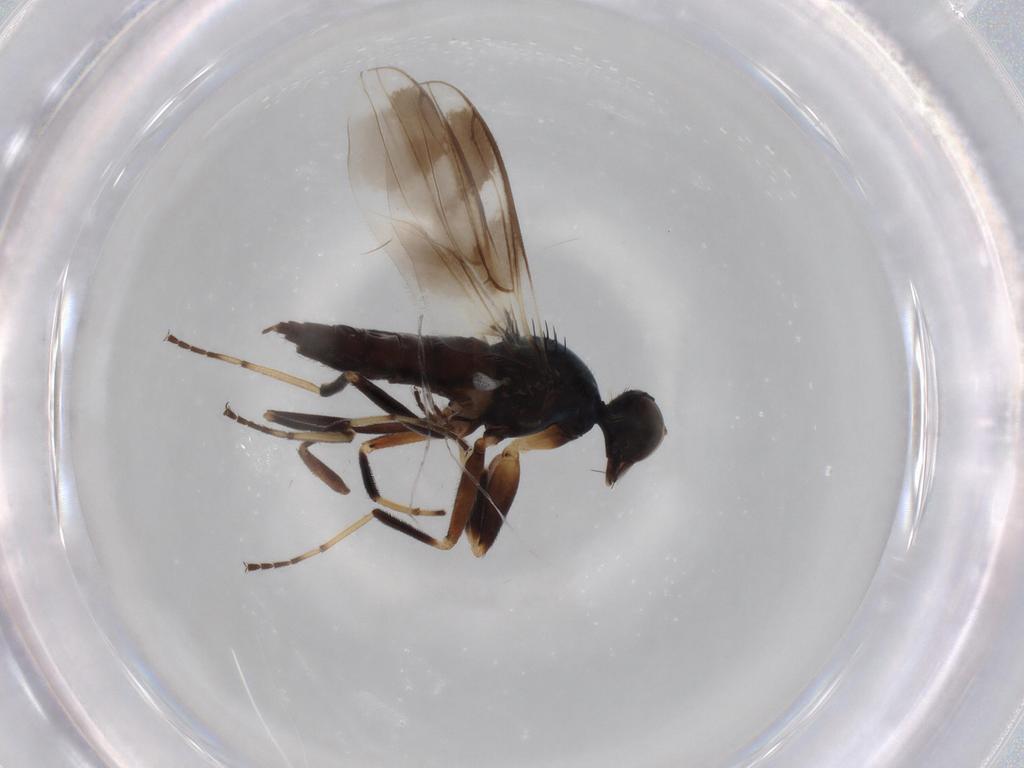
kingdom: Animalia
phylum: Arthropoda
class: Insecta
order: Diptera
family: Hybotidae
